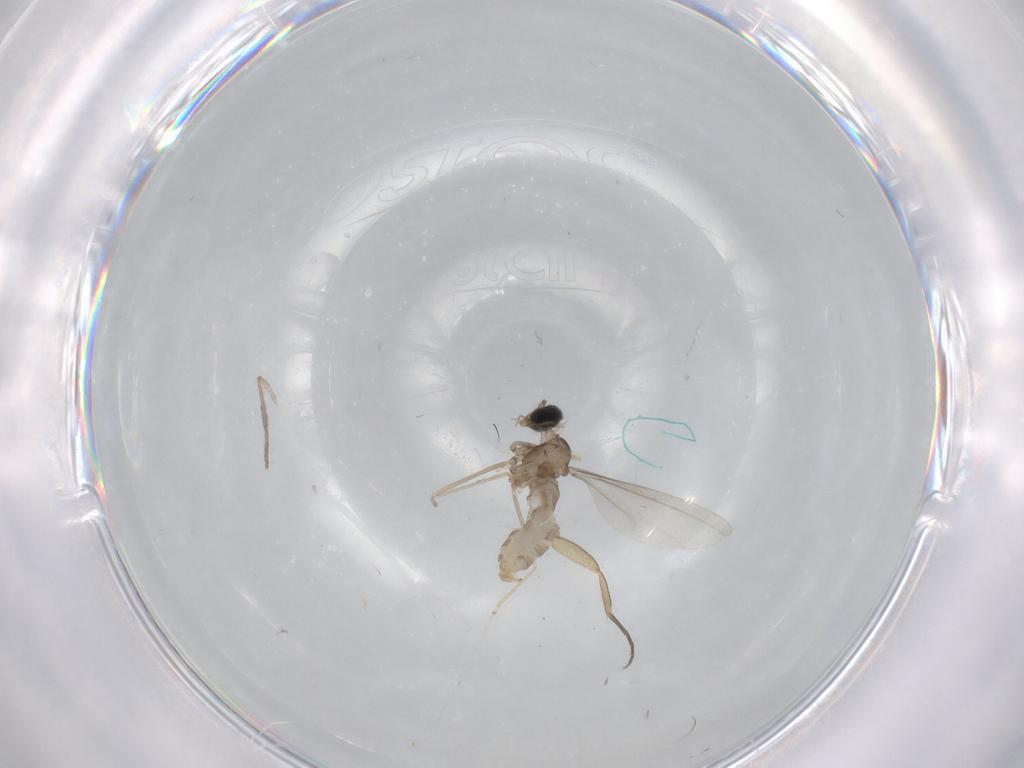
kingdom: Animalia
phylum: Arthropoda
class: Insecta
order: Diptera
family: Cecidomyiidae
